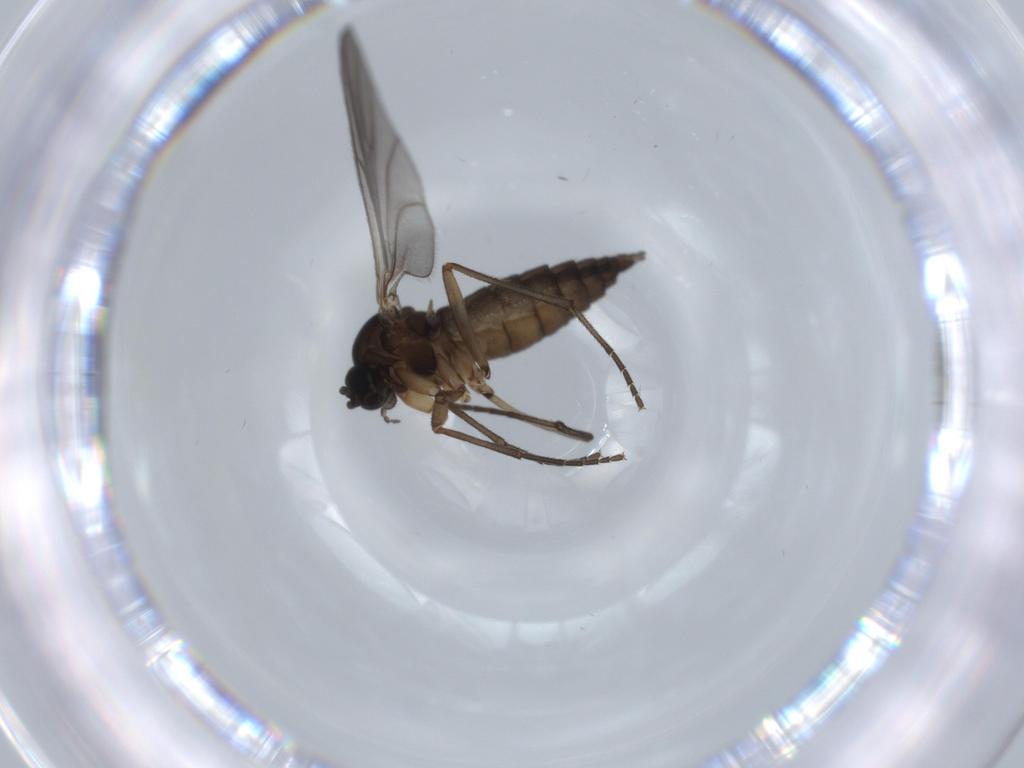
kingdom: Animalia
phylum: Arthropoda
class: Insecta
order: Diptera
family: Sciaridae
